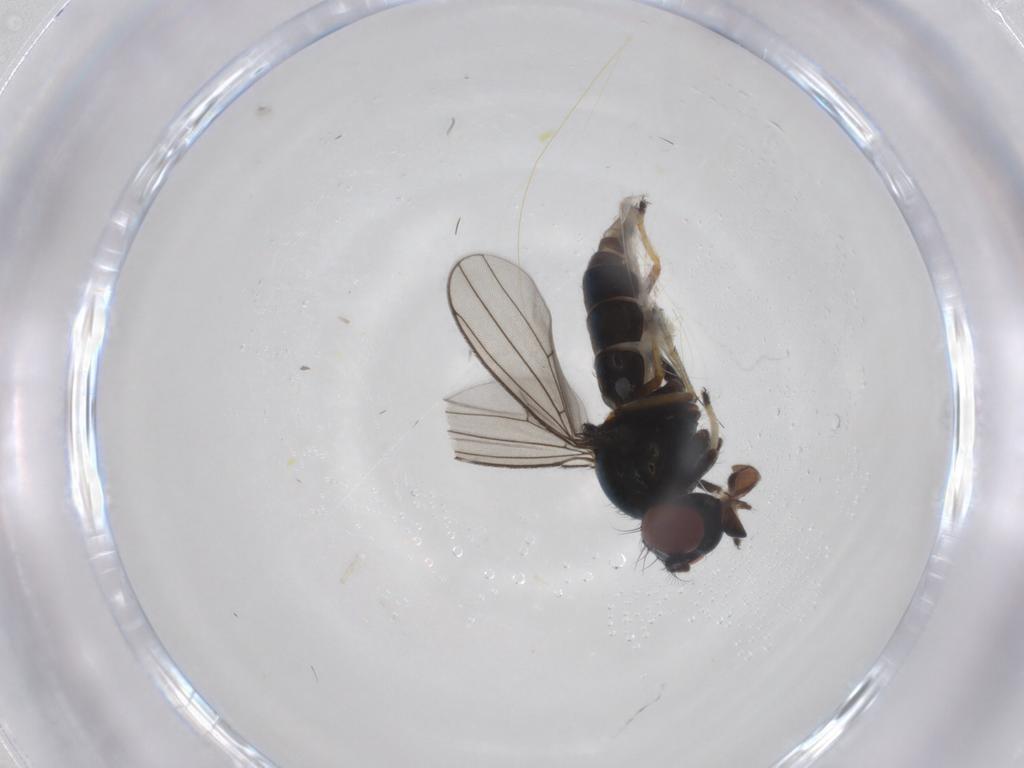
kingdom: Animalia
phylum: Arthropoda
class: Insecta
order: Diptera
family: Ephydridae
